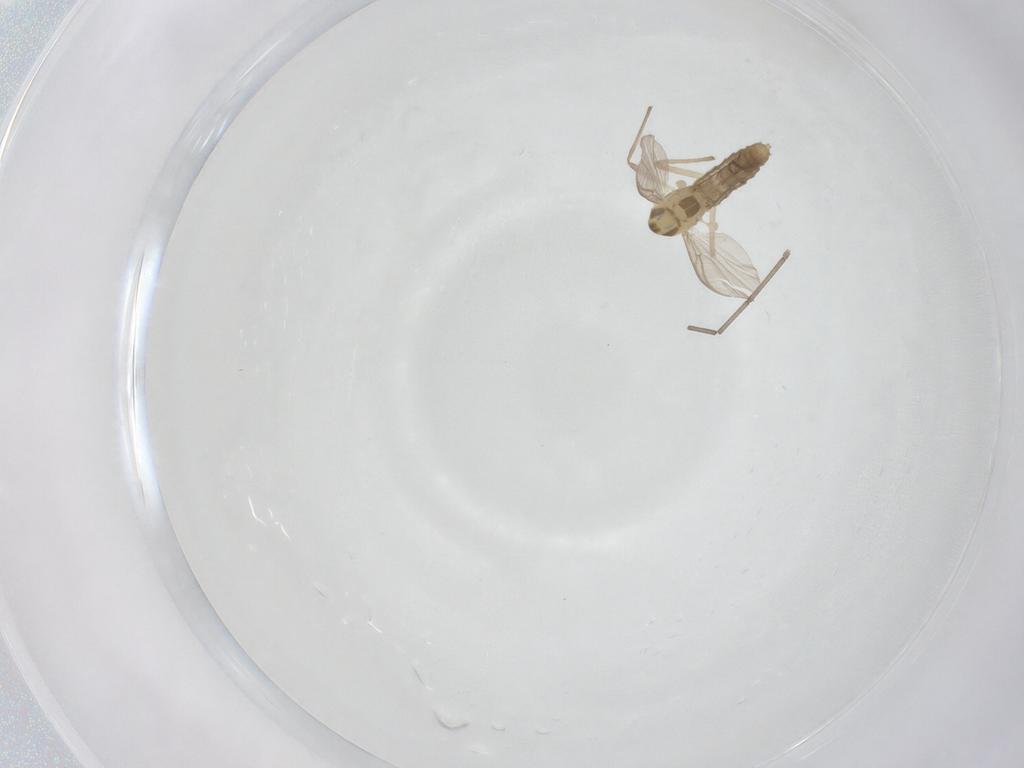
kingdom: Animalia
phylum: Arthropoda
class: Insecta
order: Diptera
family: Chironomidae
